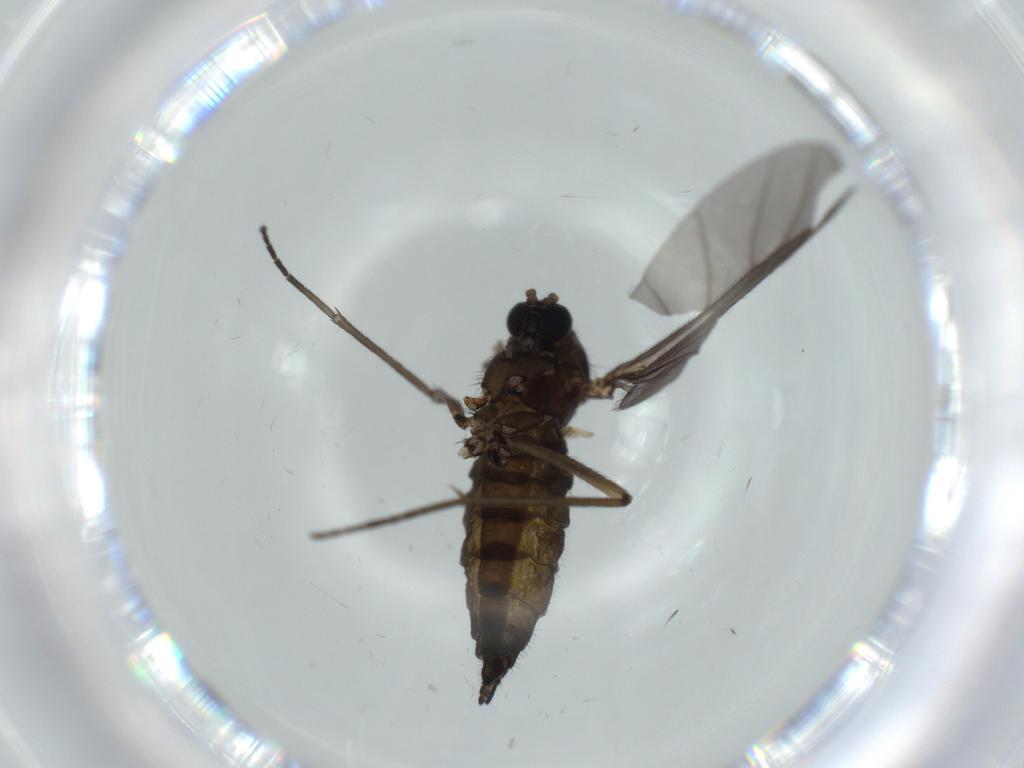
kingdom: Animalia
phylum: Arthropoda
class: Insecta
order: Diptera
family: Sciaridae
